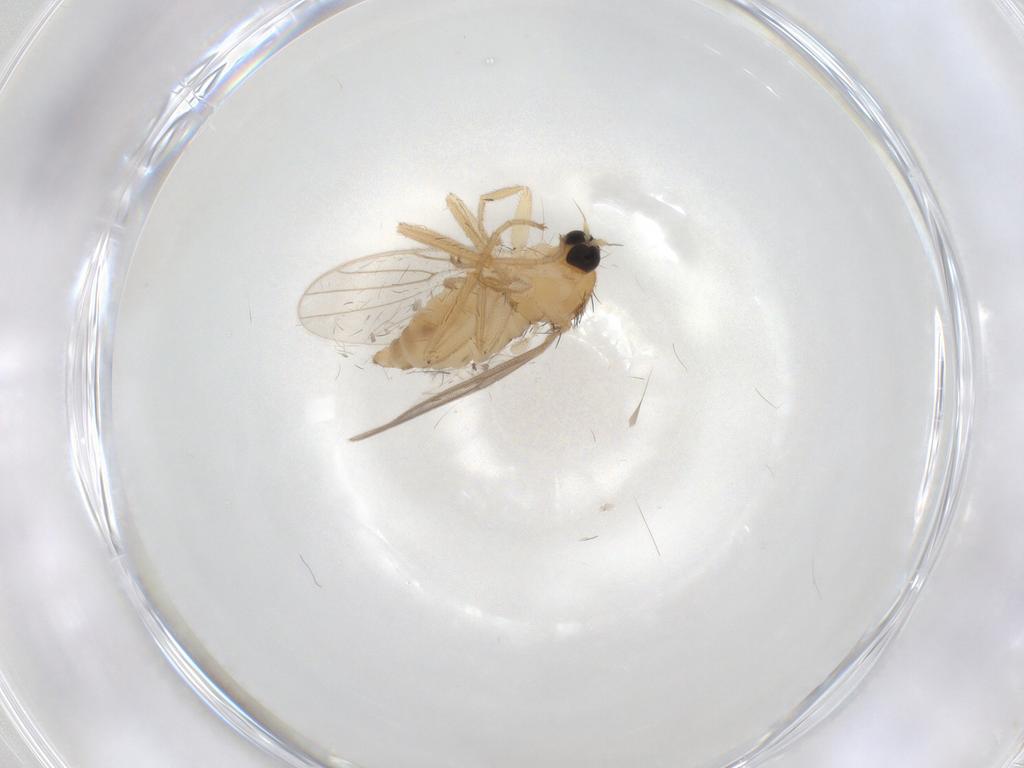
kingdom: Animalia
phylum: Arthropoda
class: Insecta
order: Diptera
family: Hybotidae
